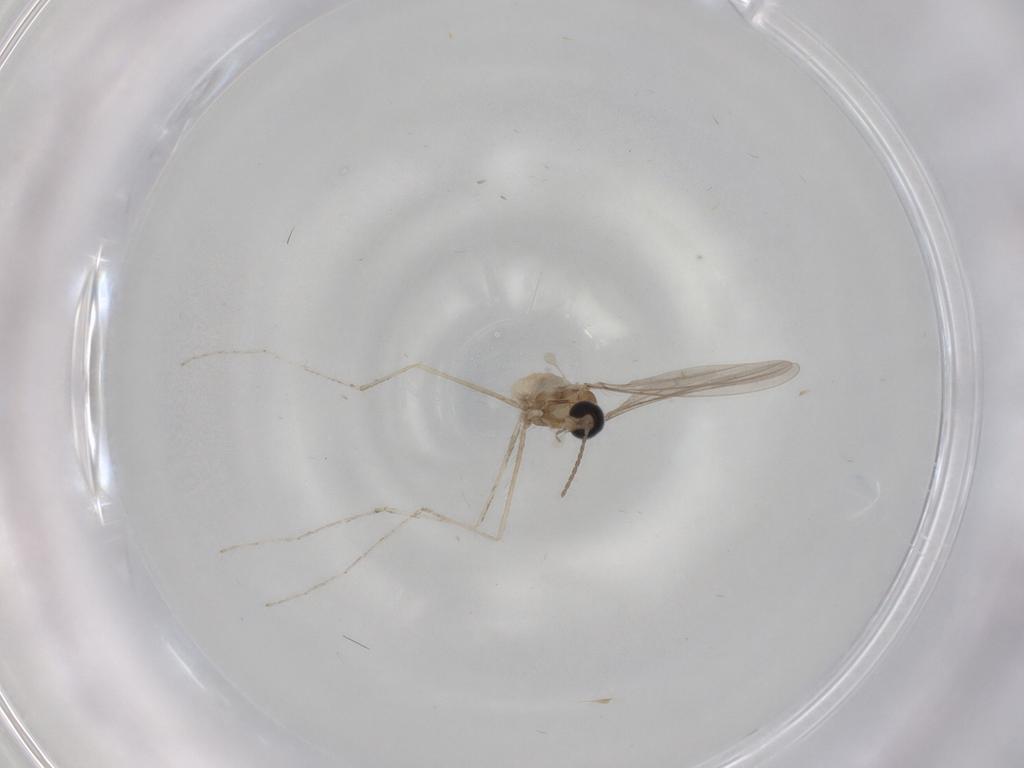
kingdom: Animalia
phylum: Arthropoda
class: Insecta
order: Diptera
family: Cecidomyiidae
